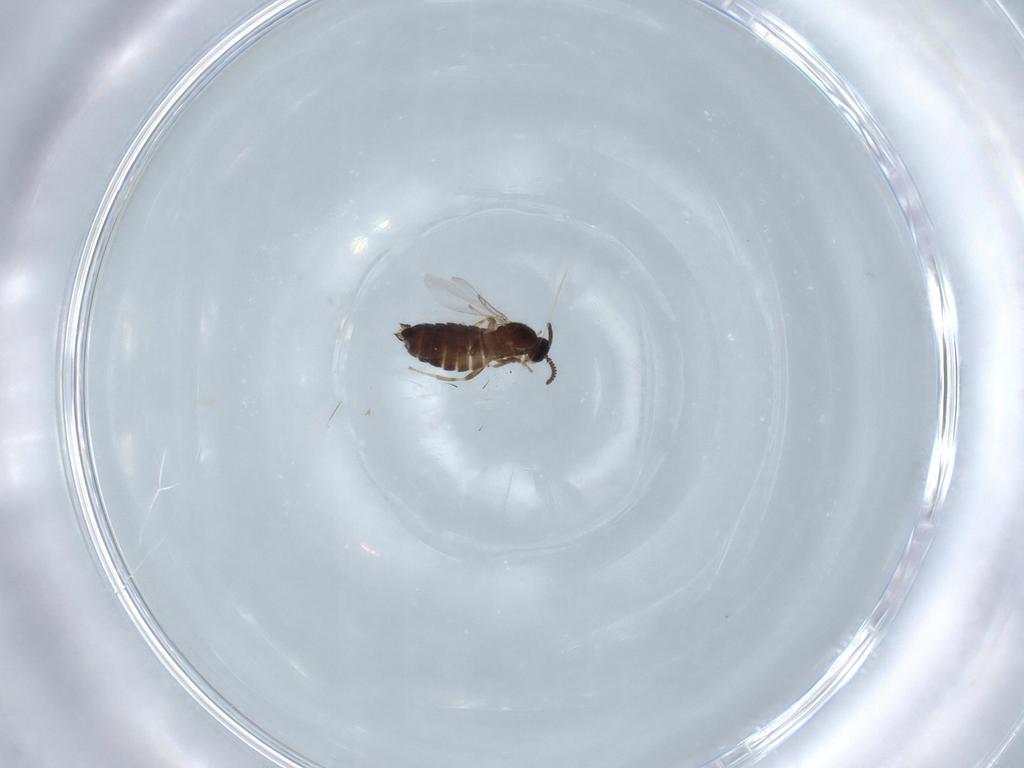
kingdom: Animalia
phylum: Arthropoda
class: Insecta
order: Diptera
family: Scatopsidae
